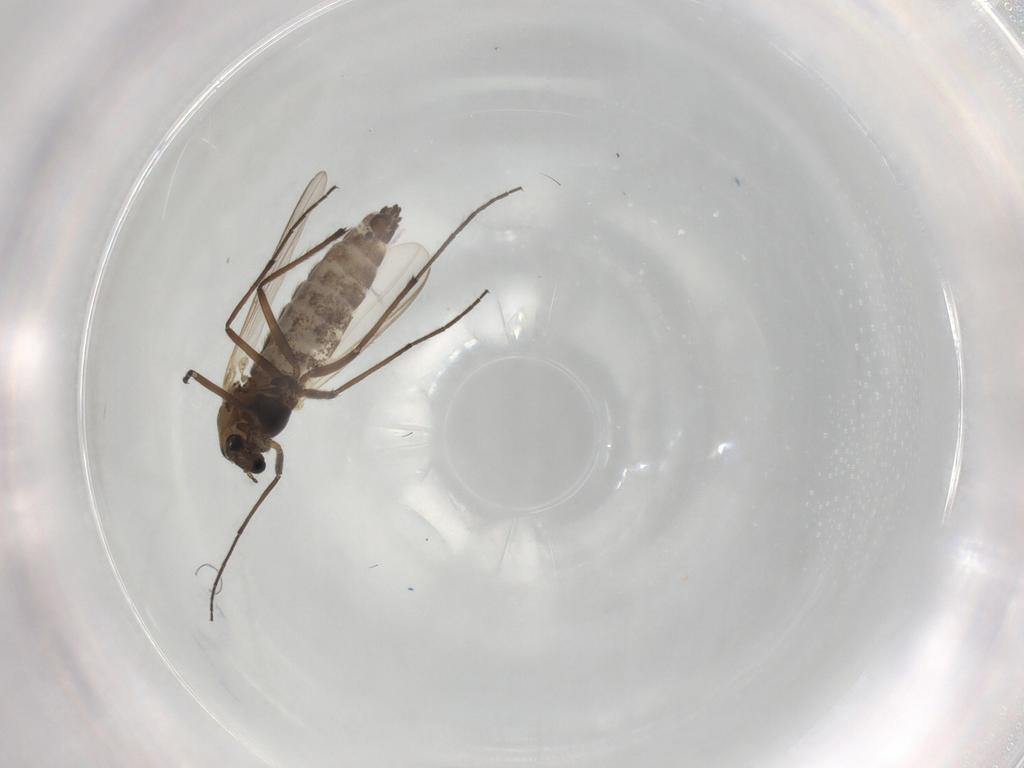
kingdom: Animalia
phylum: Arthropoda
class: Insecta
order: Diptera
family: Chironomidae
